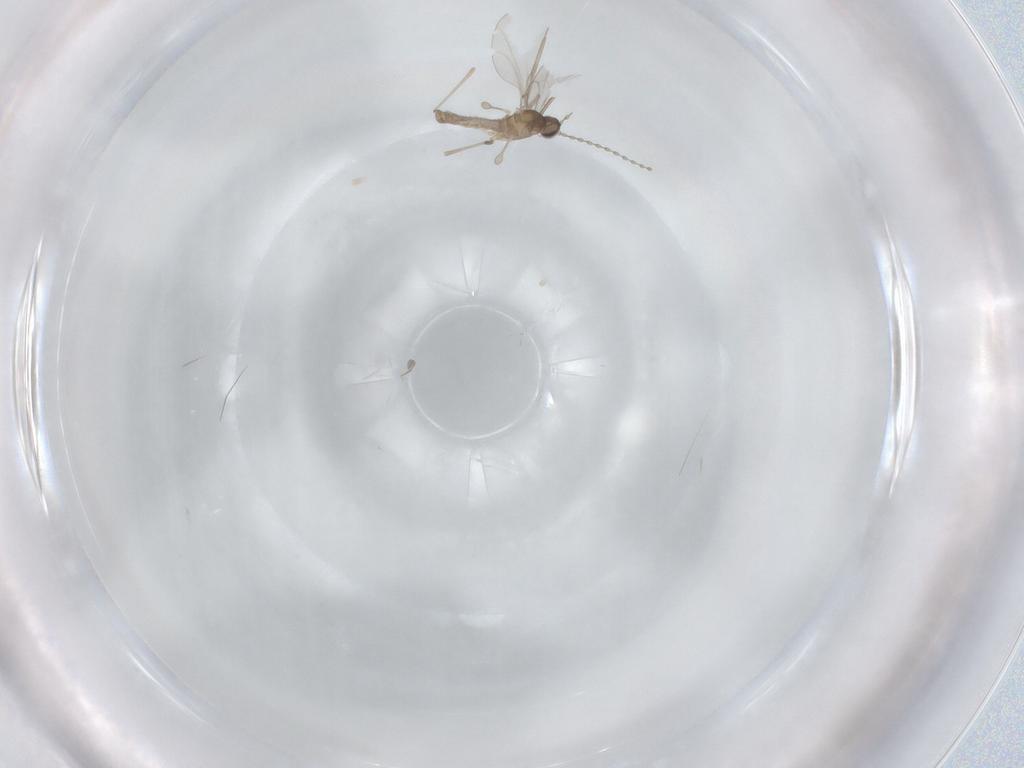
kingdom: Animalia
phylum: Arthropoda
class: Insecta
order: Diptera
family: Cecidomyiidae
